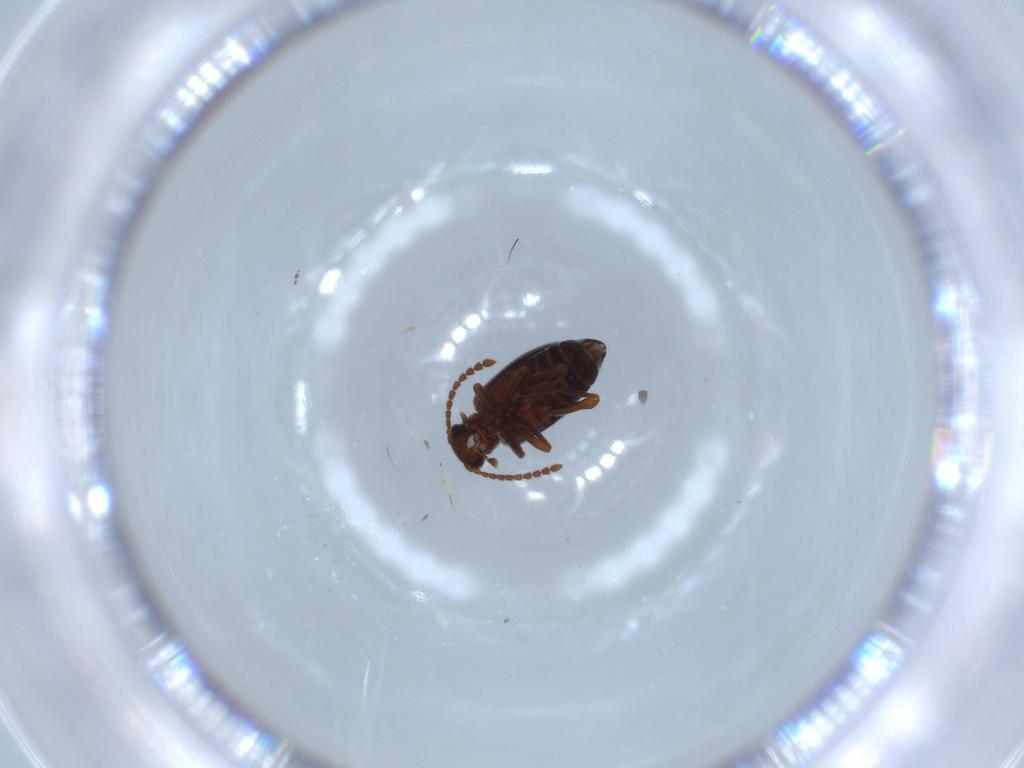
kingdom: Animalia
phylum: Arthropoda
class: Insecta
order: Coleoptera
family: Aderidae
